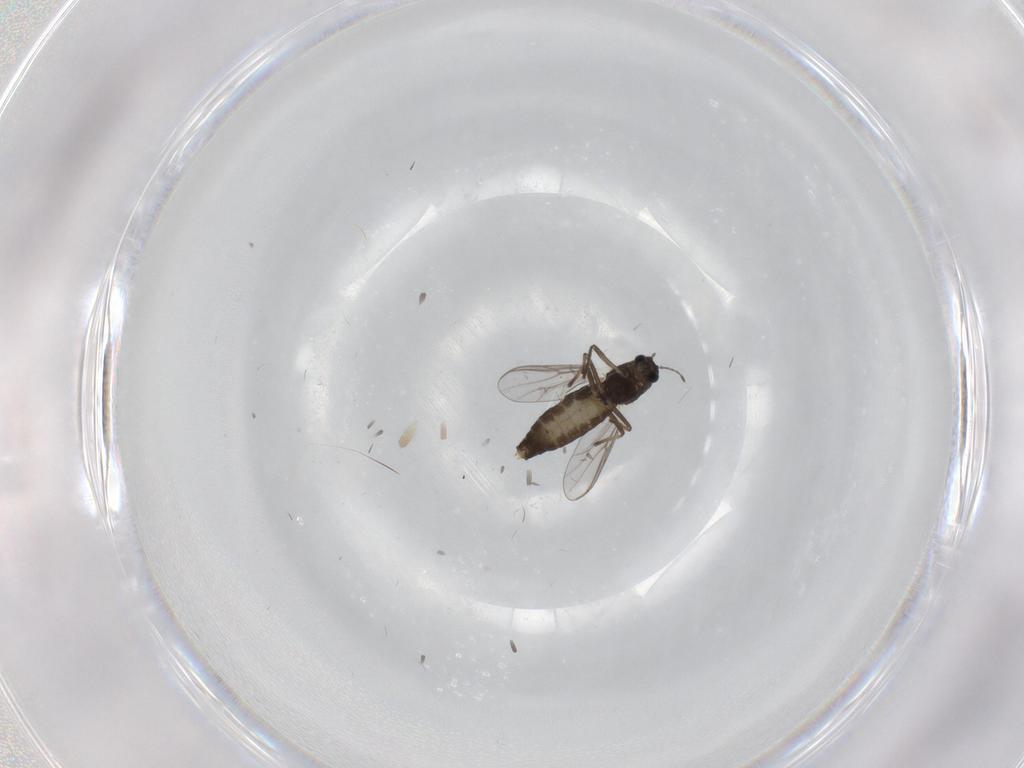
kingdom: Animalia
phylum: Arthropoda
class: Insecta
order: Diptera
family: Chironomidae
